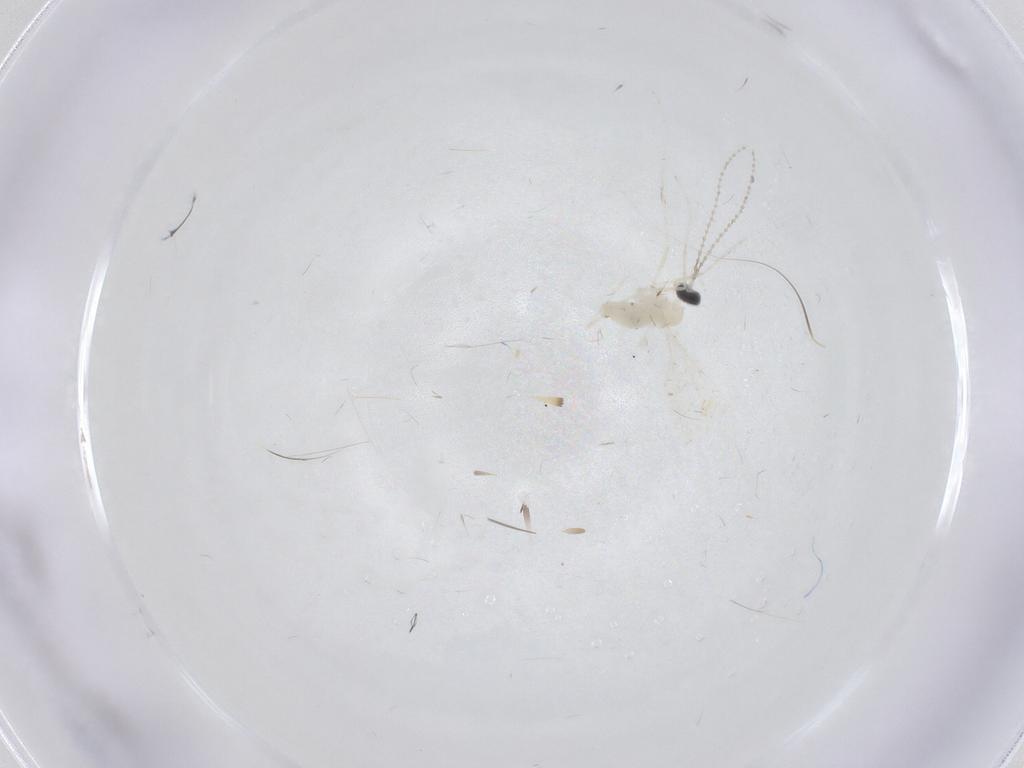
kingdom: Animalia
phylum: Arthropoda
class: Insecta
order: Diptera
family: Cecidomyiidae
